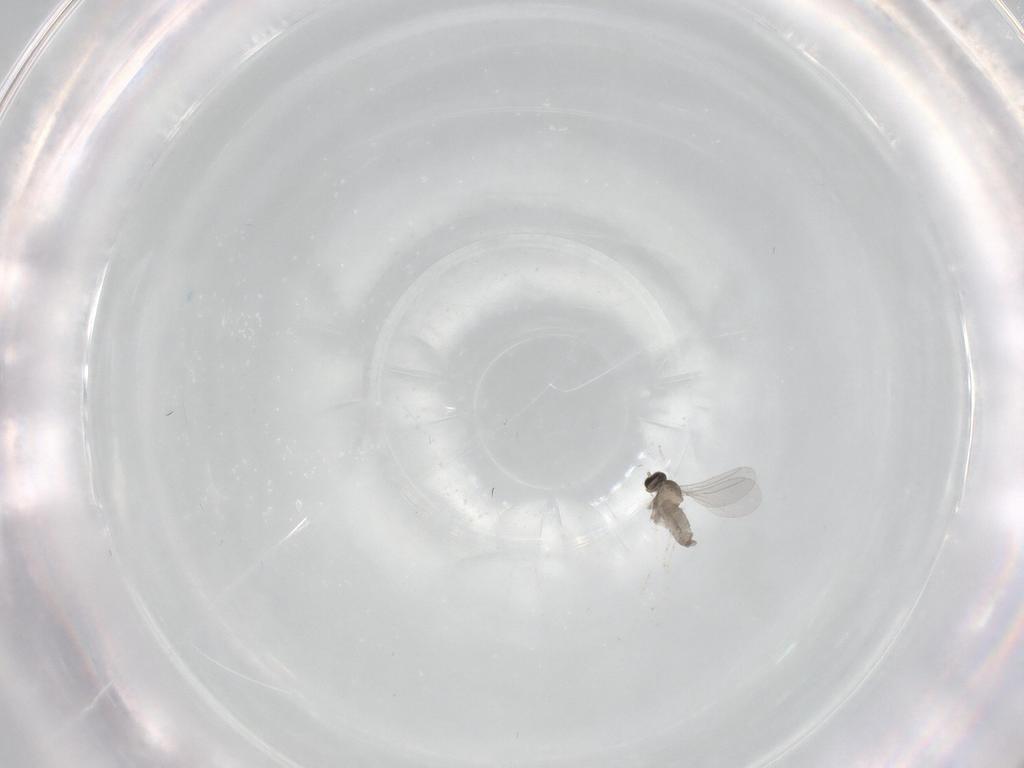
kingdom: Animalia
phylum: Arthropoda
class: Insecta
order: Diptera
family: Cecidomyiidae
